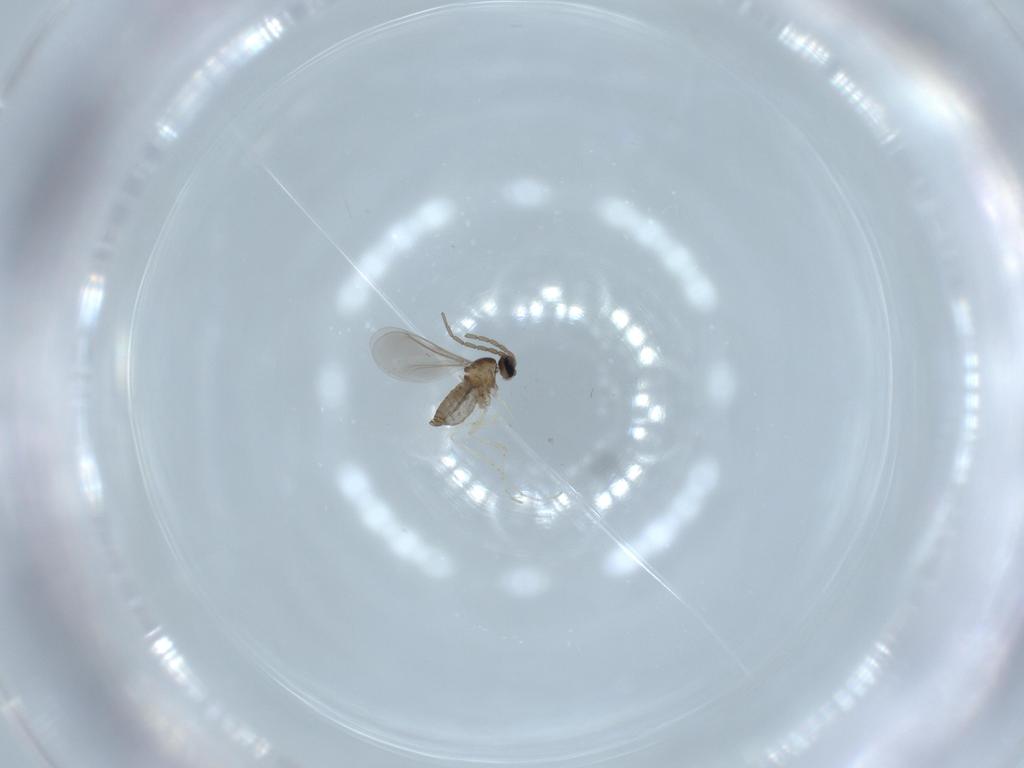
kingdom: Animalia
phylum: Arthropoda
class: Insecta
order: Diptera
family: Cecidomyiidae
